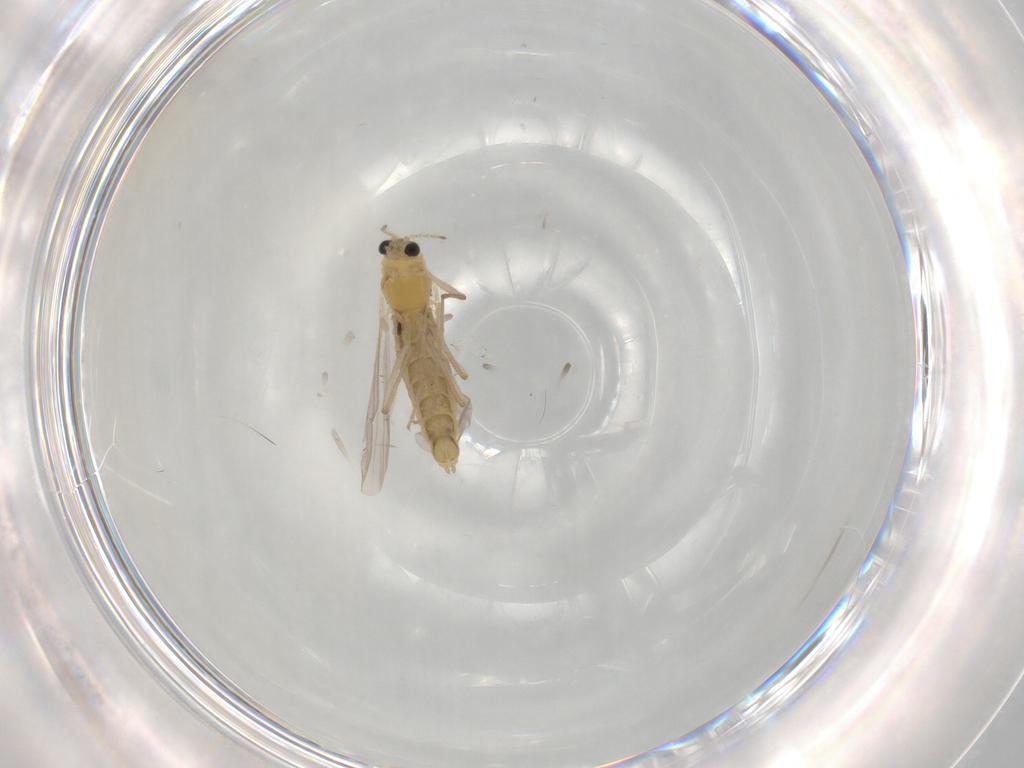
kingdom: Animalia
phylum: Arthropoda
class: Insecta
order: Diptera
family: Chironomidae
